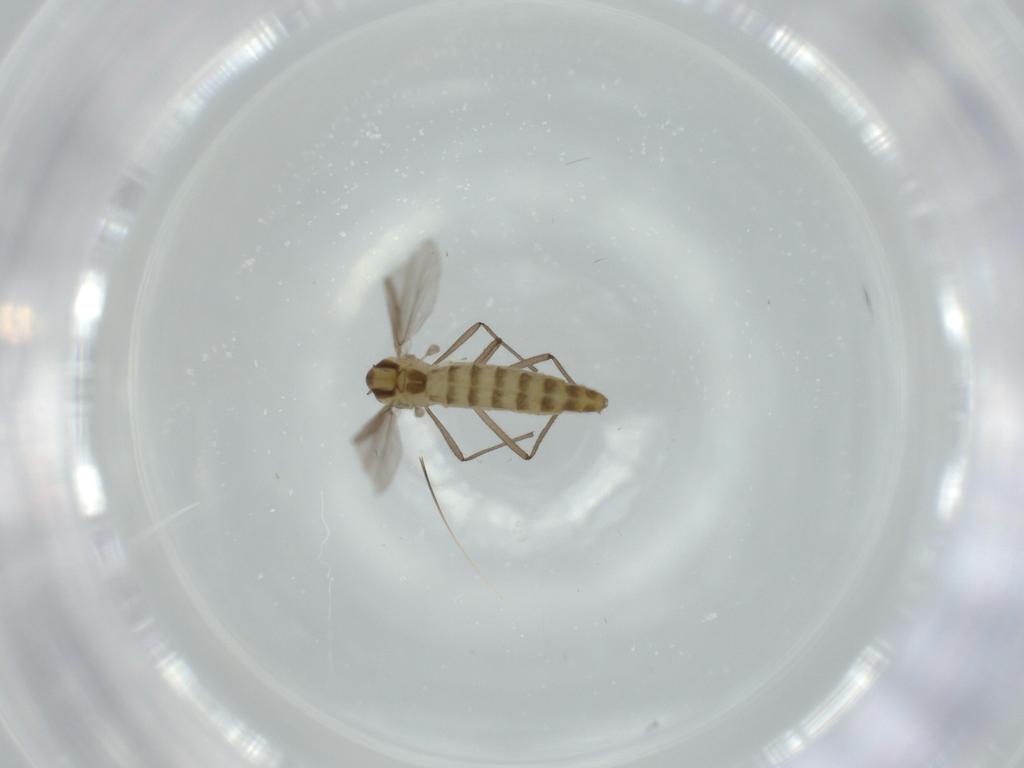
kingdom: Animalia
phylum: Arthropoda
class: Insecta
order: Diptera
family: Chironomidae
